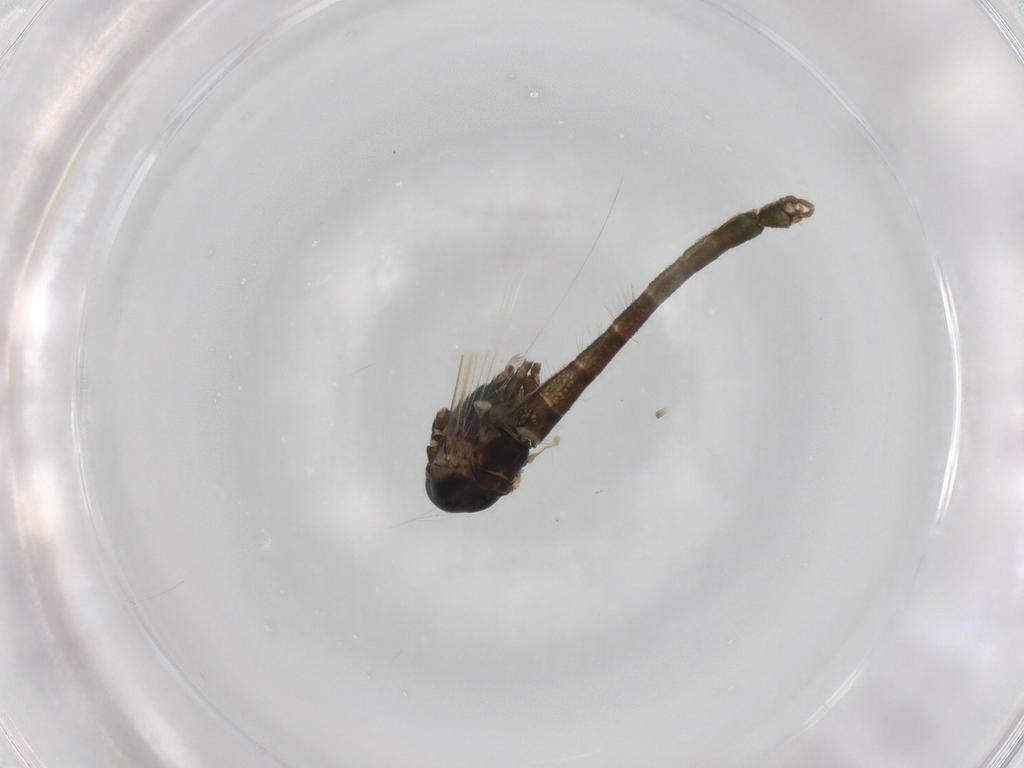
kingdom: Animalia
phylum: Arthropoda
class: Insecta
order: Diptera
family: Chironomidae
